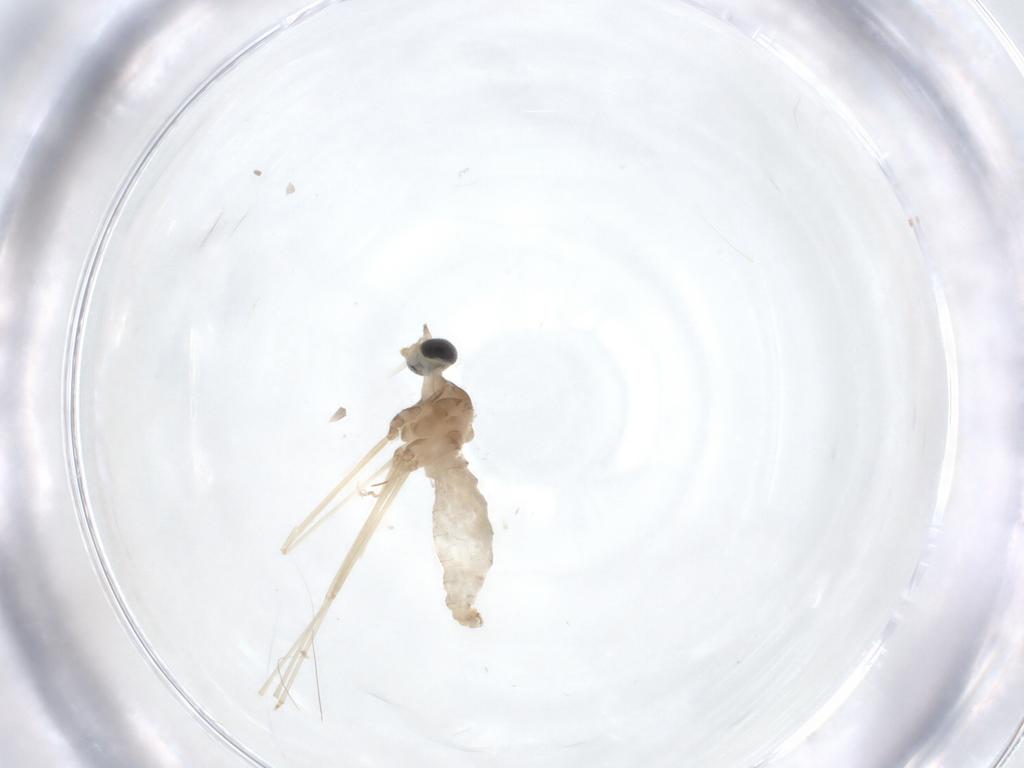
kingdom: Animalia
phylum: Arthropoda
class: Insecta
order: Diptera
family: Cecidomyiidae
